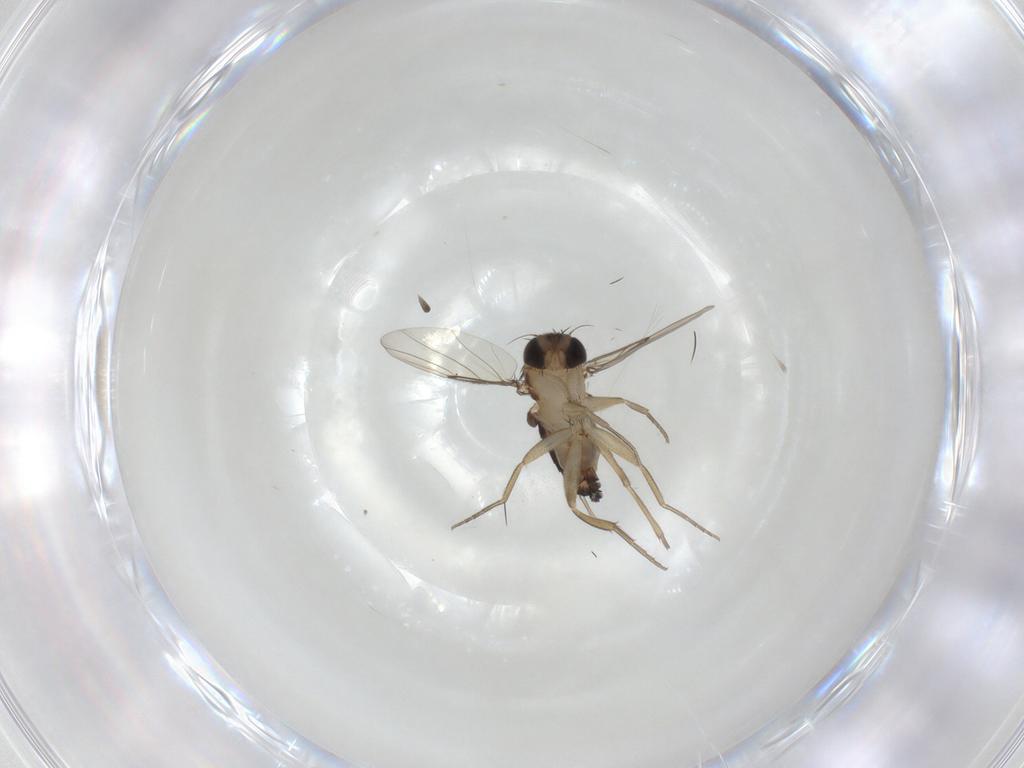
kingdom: Animalia
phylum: Arthropoda
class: Insecta
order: Diptera
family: Phoridae
